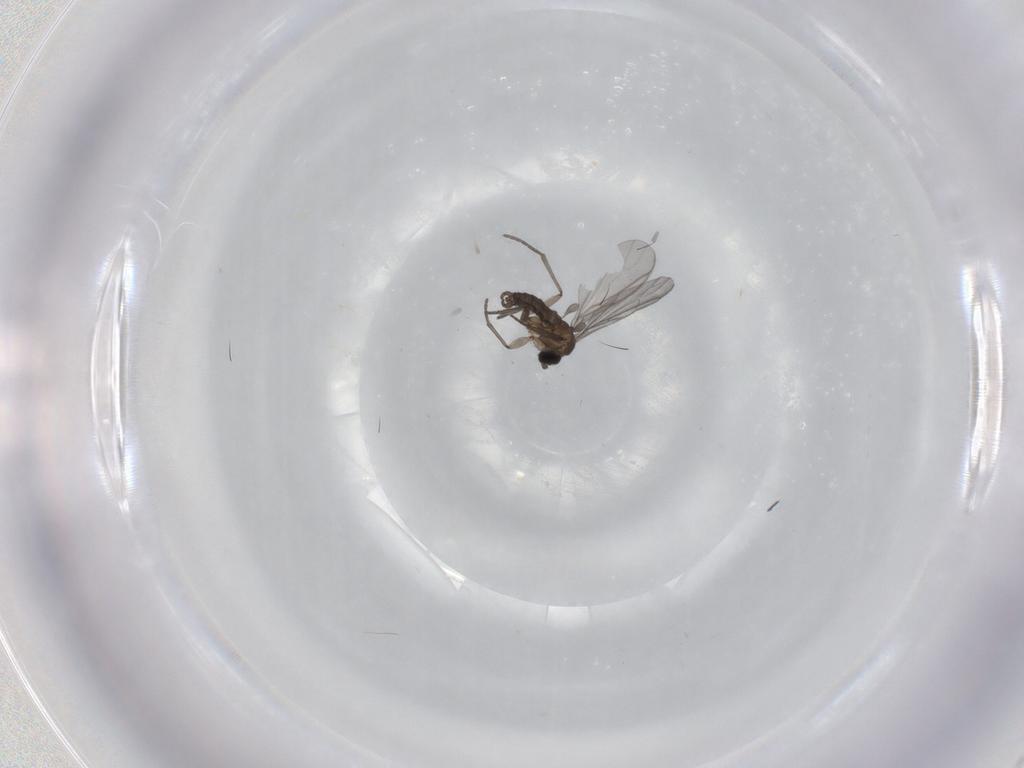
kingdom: Animalia
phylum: Arthropoda
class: Insecta
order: Diptera
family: Sciaridae
